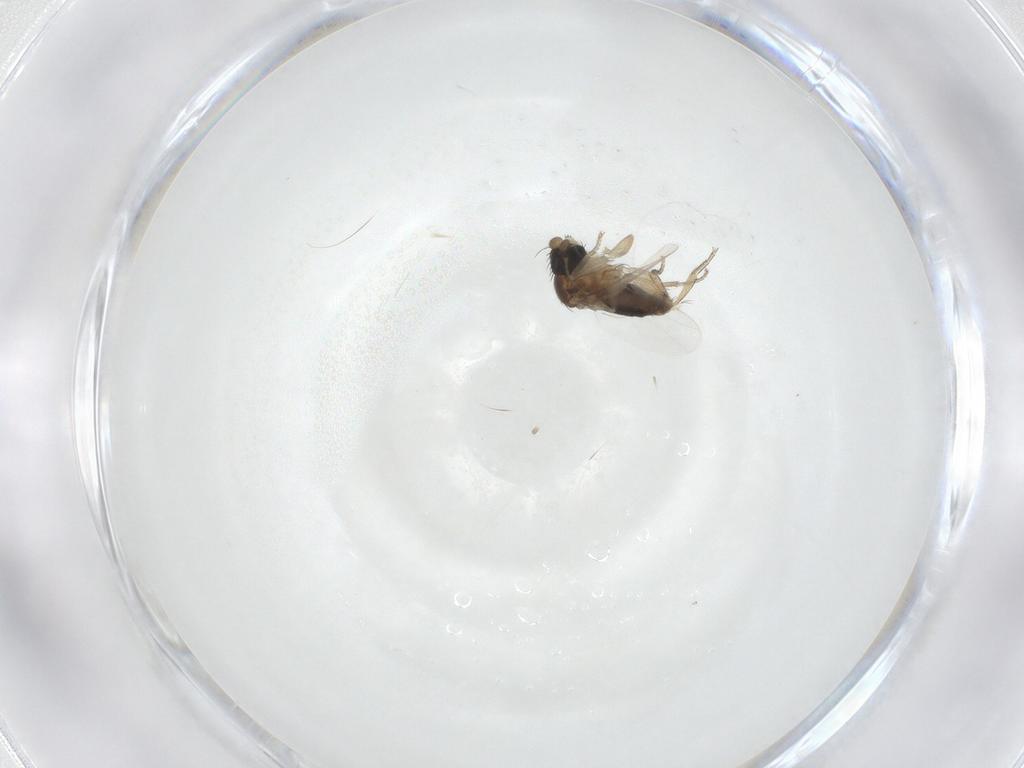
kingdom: Animalia
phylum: Arthropoda
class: Insecta
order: Diptera
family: Phoridae
